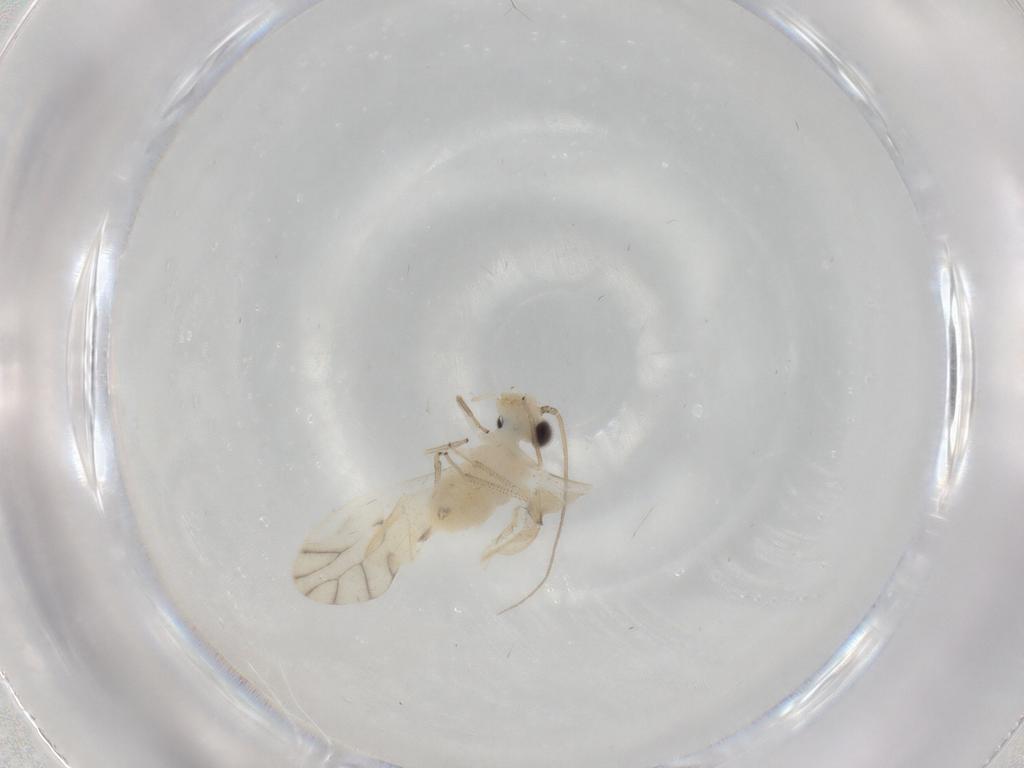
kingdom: Animalia
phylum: Arthropoda
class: Insecta
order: Psocodea
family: Caeciliusidae
